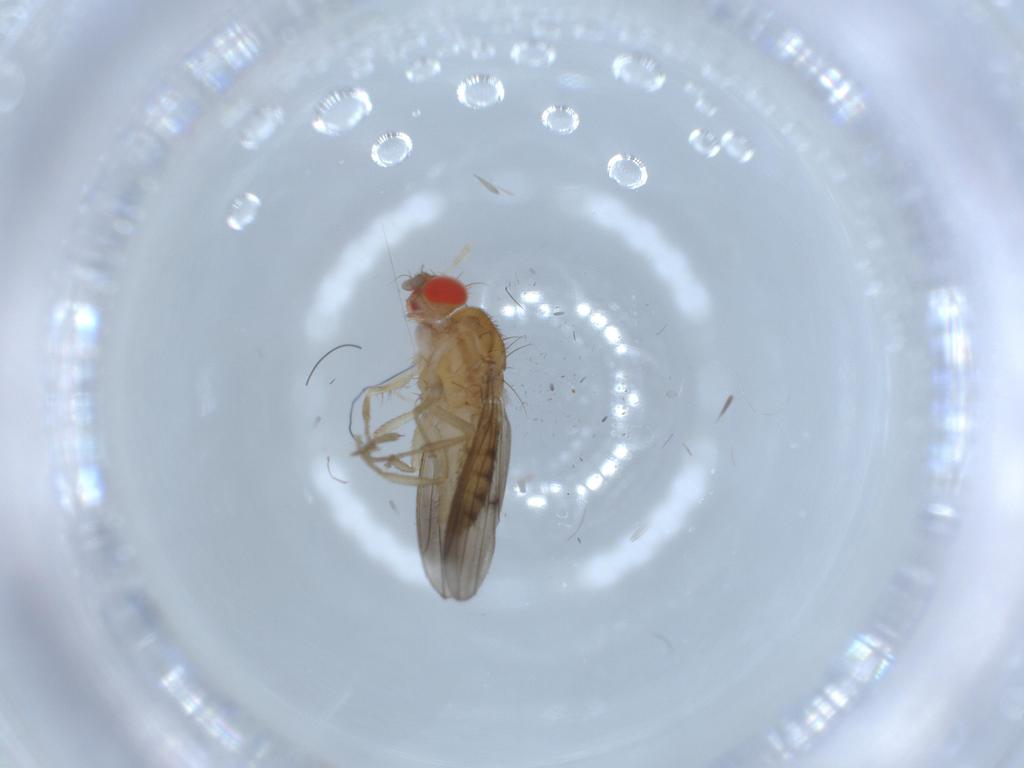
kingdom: Animalia
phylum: Arthropoda
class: Insecta
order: Diptera
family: Drosophilidae
